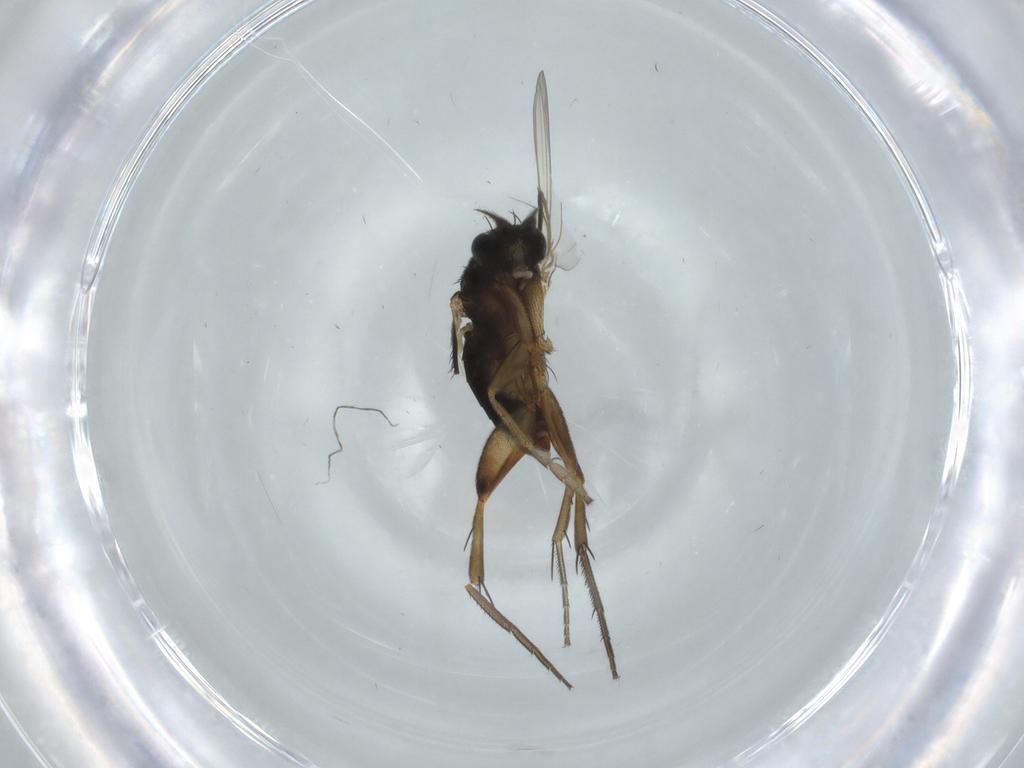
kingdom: Animalia
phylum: Arthropoda
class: Insecta
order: Diptera
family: Phoridae
